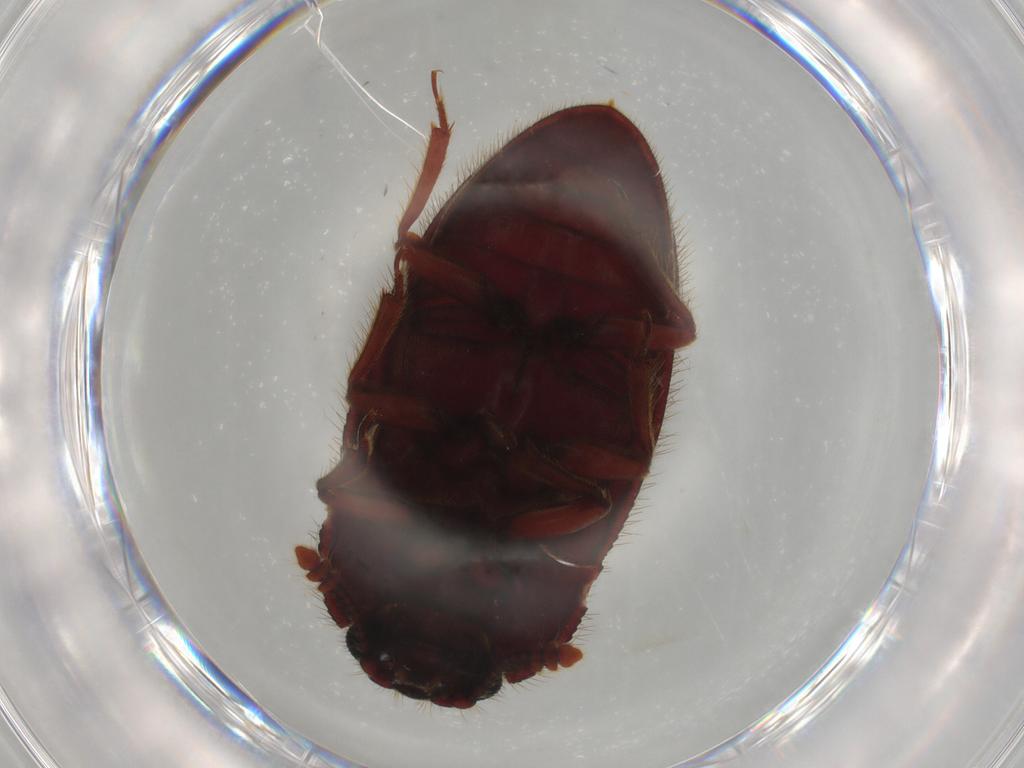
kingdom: Animalia
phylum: Arthropoda
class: Insecta
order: Coleoptera
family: Biphyllidae
